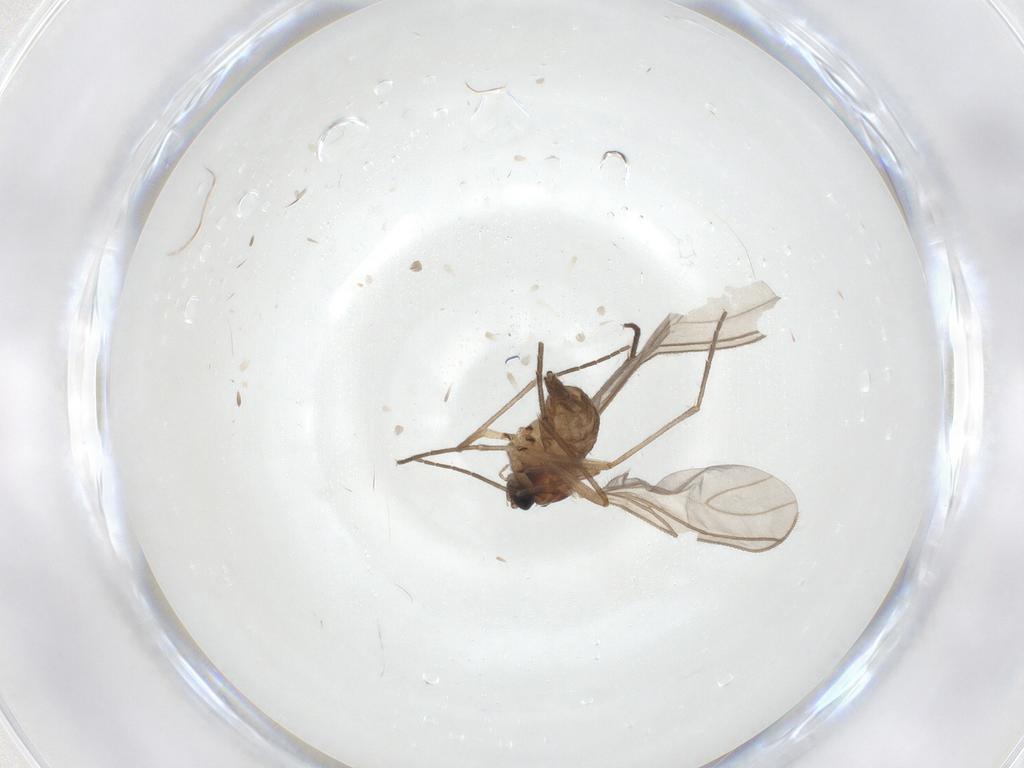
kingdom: Animalia
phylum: Arthropoda
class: Insecta
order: Diptera
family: Sciaridae
